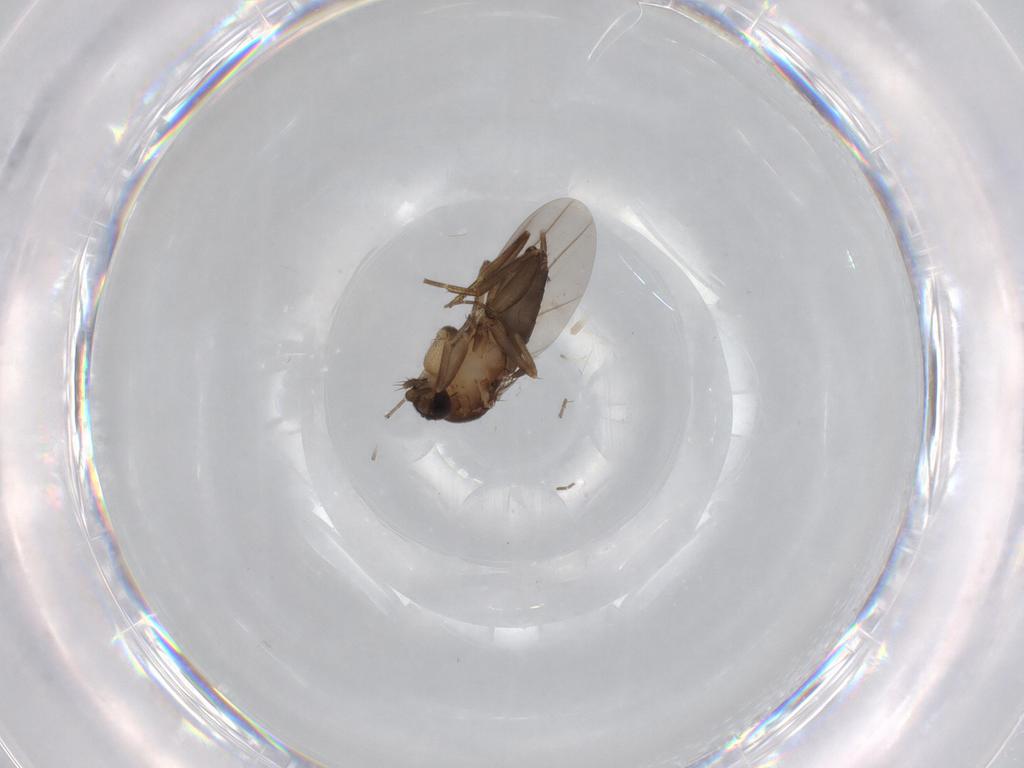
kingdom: Animalia
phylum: Arthropoda
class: Insecta
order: Diptera
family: Phoridae
